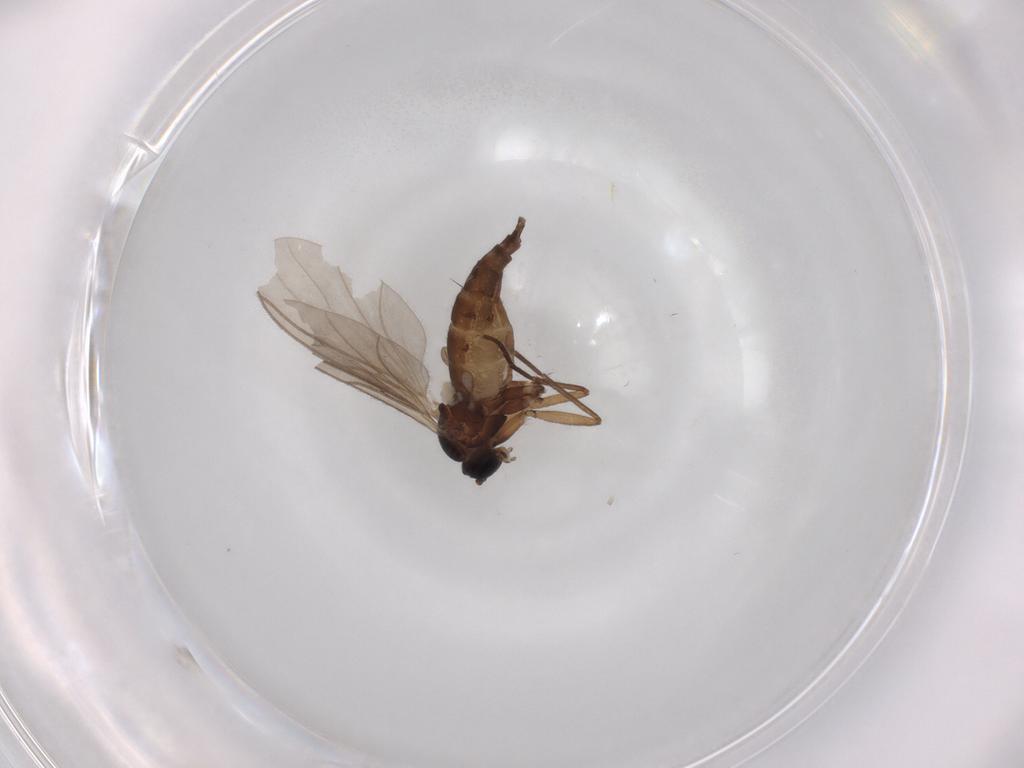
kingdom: Animalia
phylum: Arthropoda
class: Insecta
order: Diptera
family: Sciaridae
